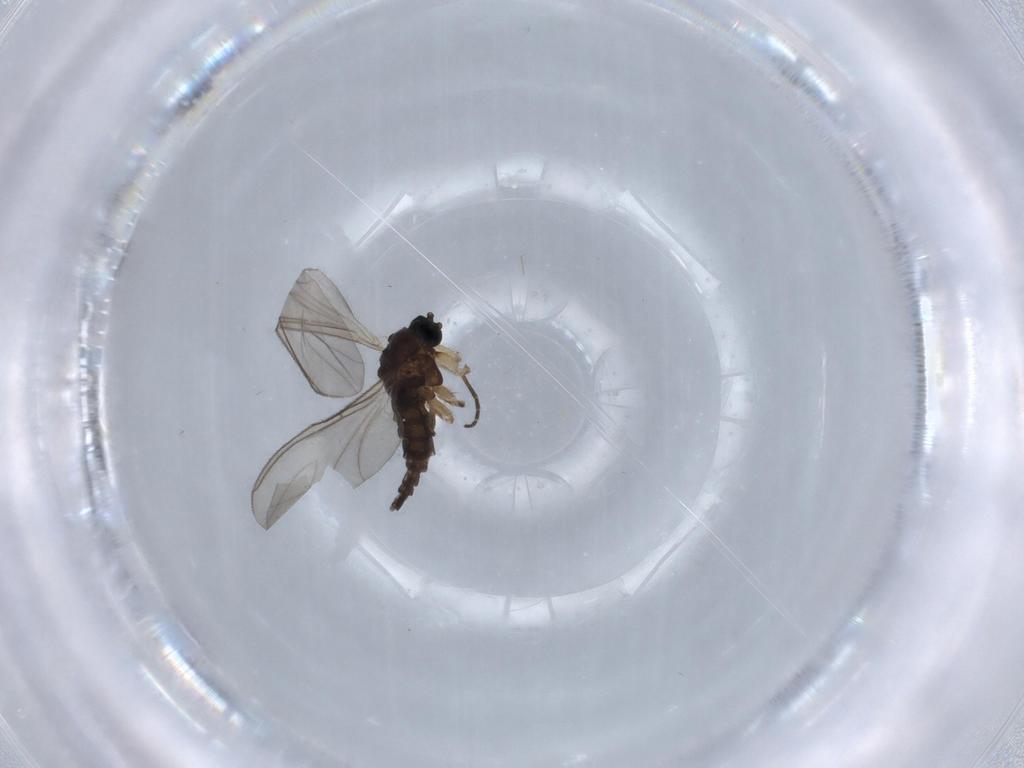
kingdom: Animalia
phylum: Arthropoda
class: Insecta
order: Diptera
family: Sciaridae
